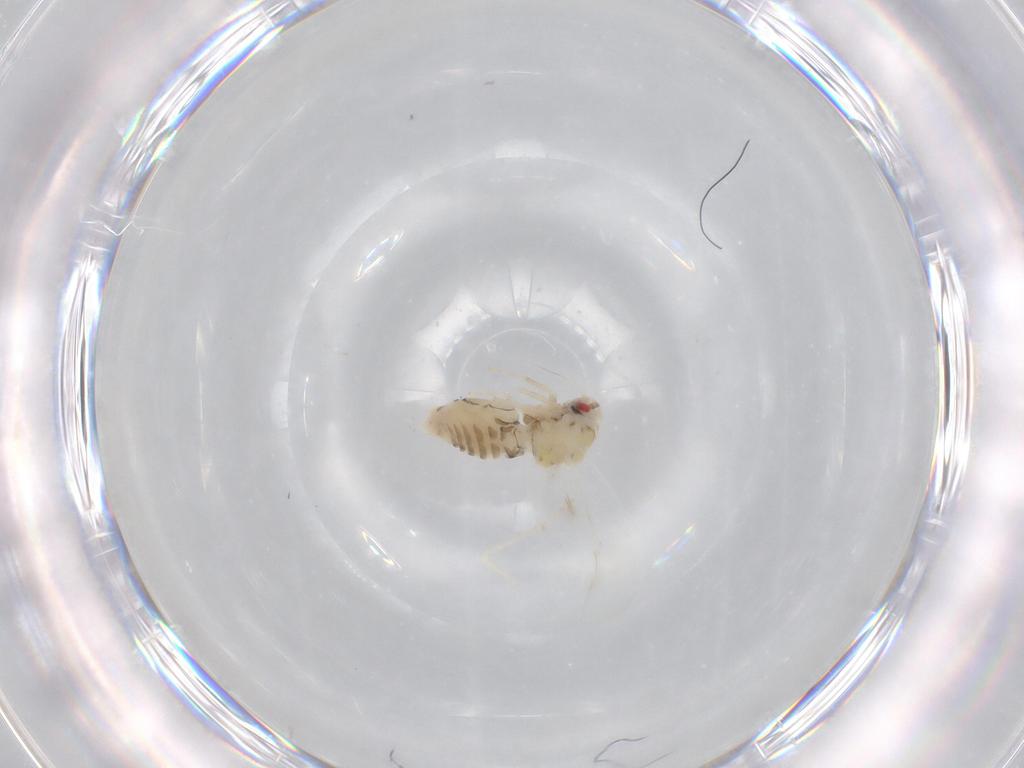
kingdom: Animalia
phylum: Arthropoda
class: Insecta
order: Hemiptera
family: Aleyrodidae
